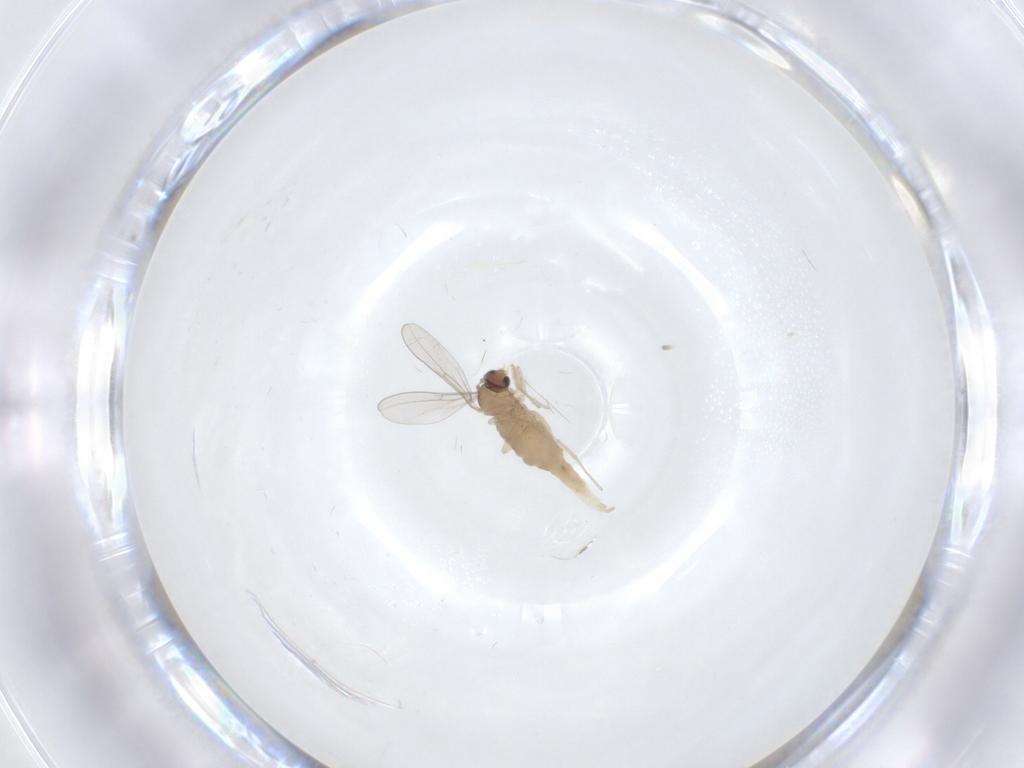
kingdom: Animalia
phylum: Arthropoda
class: Insecta
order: Diptera
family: Cecidomyiidae
